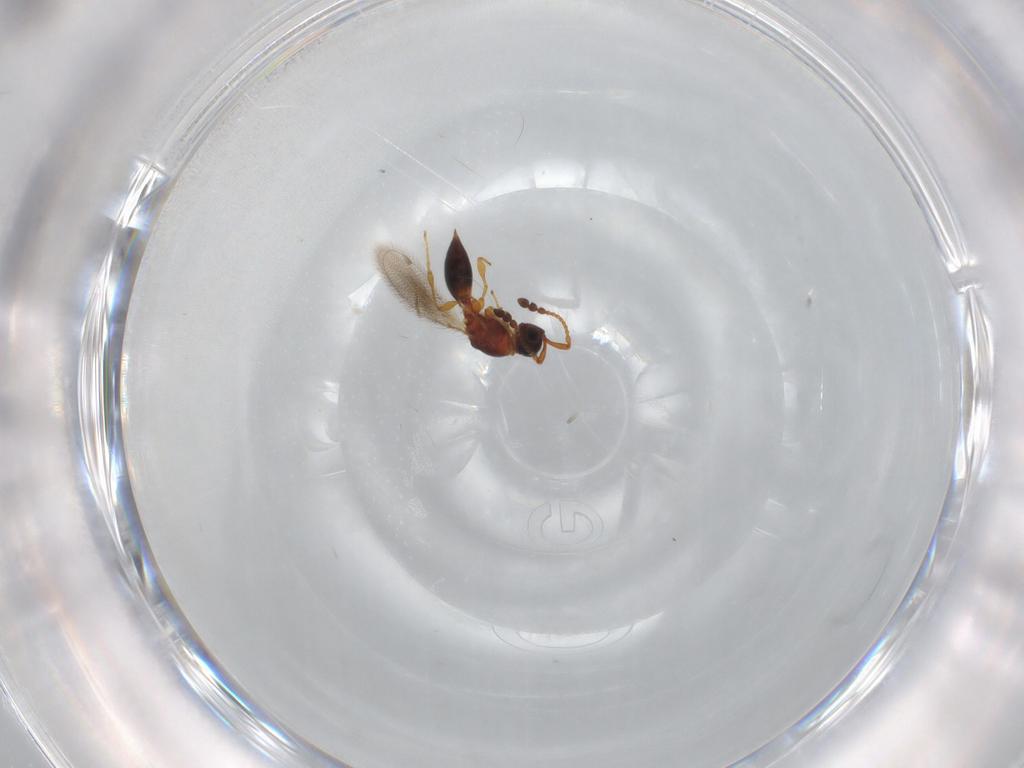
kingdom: Animalia
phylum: Arthropoda
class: Insecta
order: Hymenoptera
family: Diapriidae
